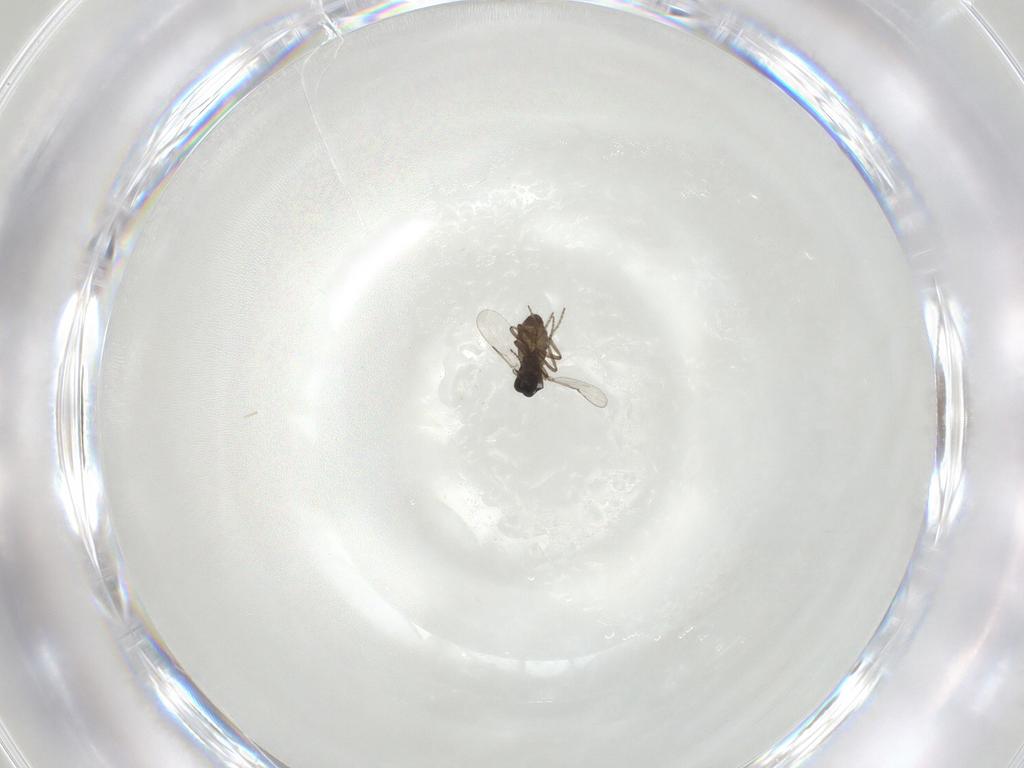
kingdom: Animalia
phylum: Arthropoda
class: Insecta
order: Diptera
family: Ceratopogonidae
